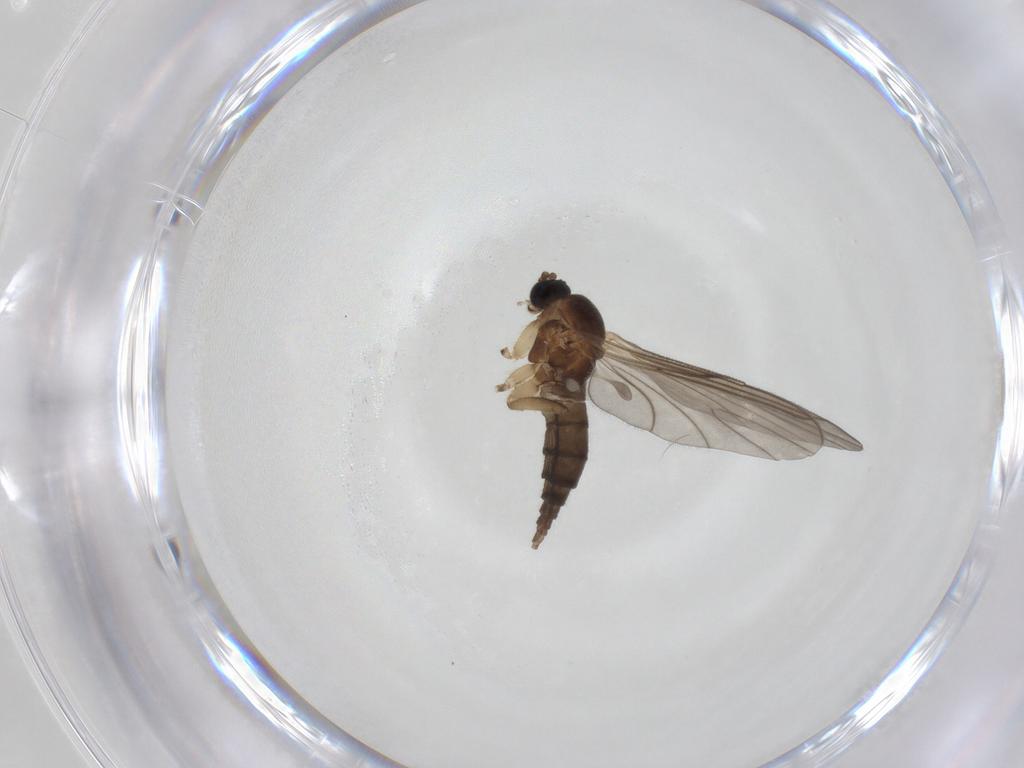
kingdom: Animalia
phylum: Arthropoda
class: Insecta
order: Diptera
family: Sciaridae
